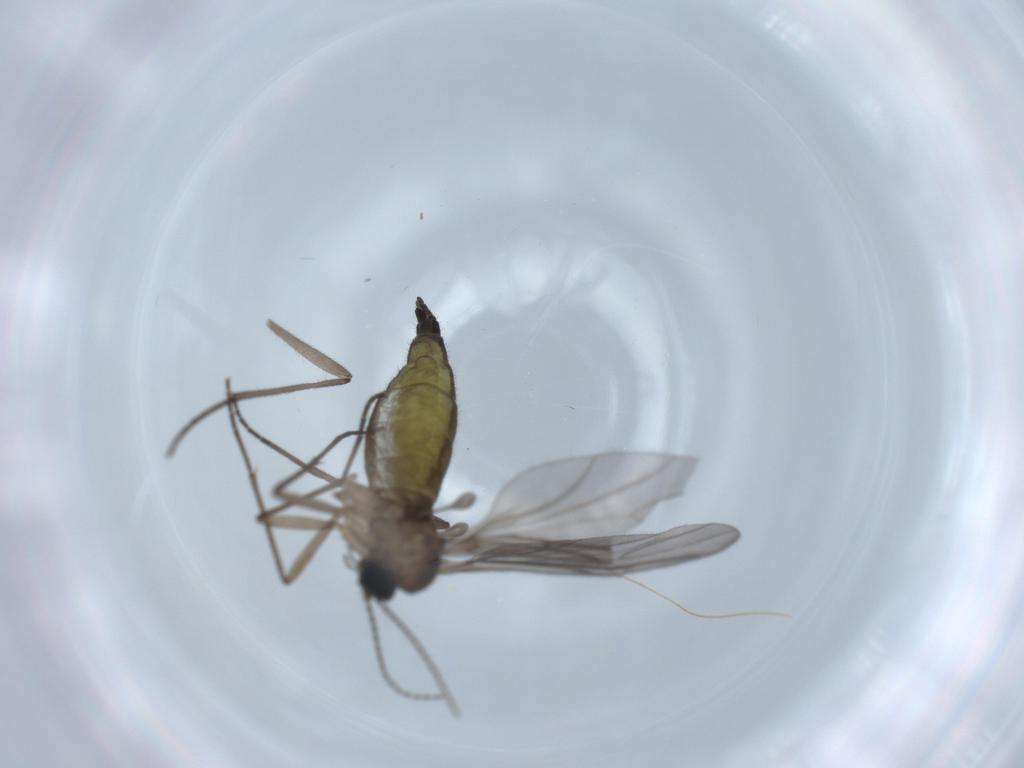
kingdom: Animalia
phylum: Arthropoda
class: Insecta
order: Diptera
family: Sciaridae
